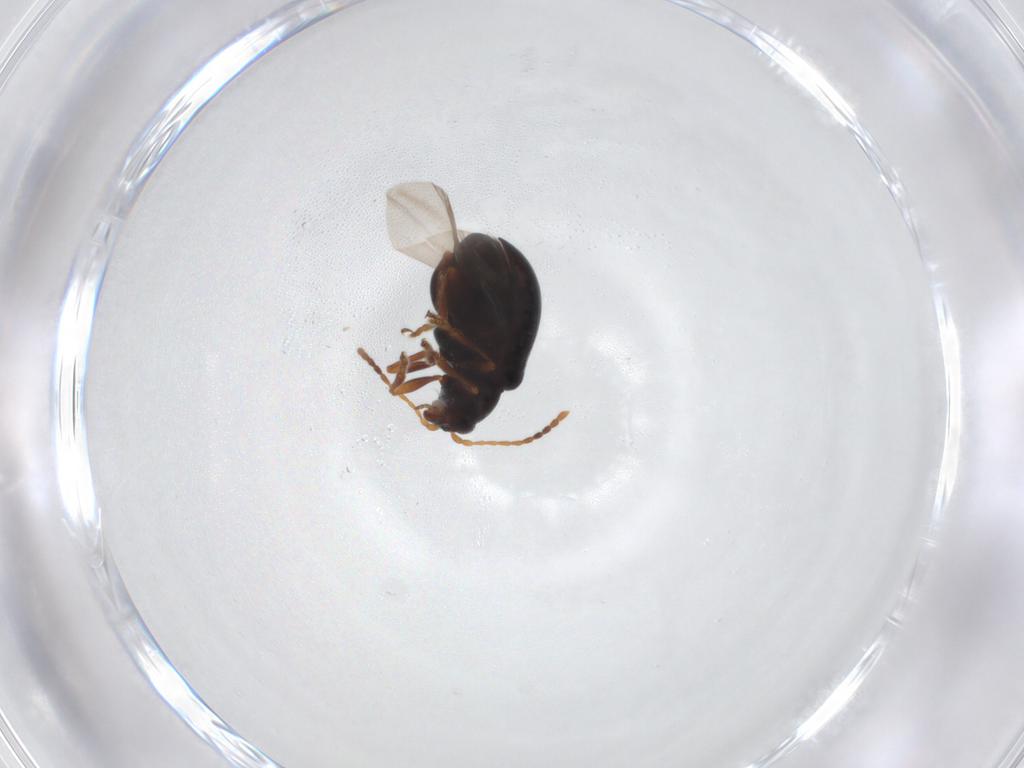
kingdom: Animalia
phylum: Arthropoda
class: Insecta
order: Coleoptera
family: Chrysomelidae
